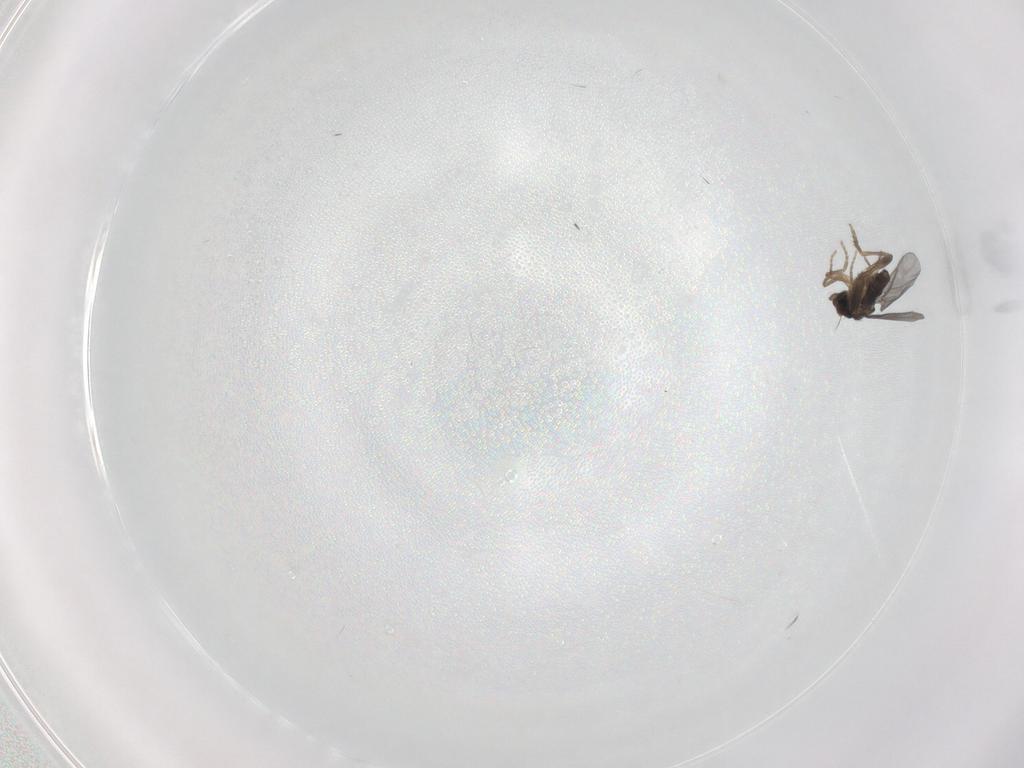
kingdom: Animalia
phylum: Arthropoda
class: Insecta
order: Diptera
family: Phoridae
